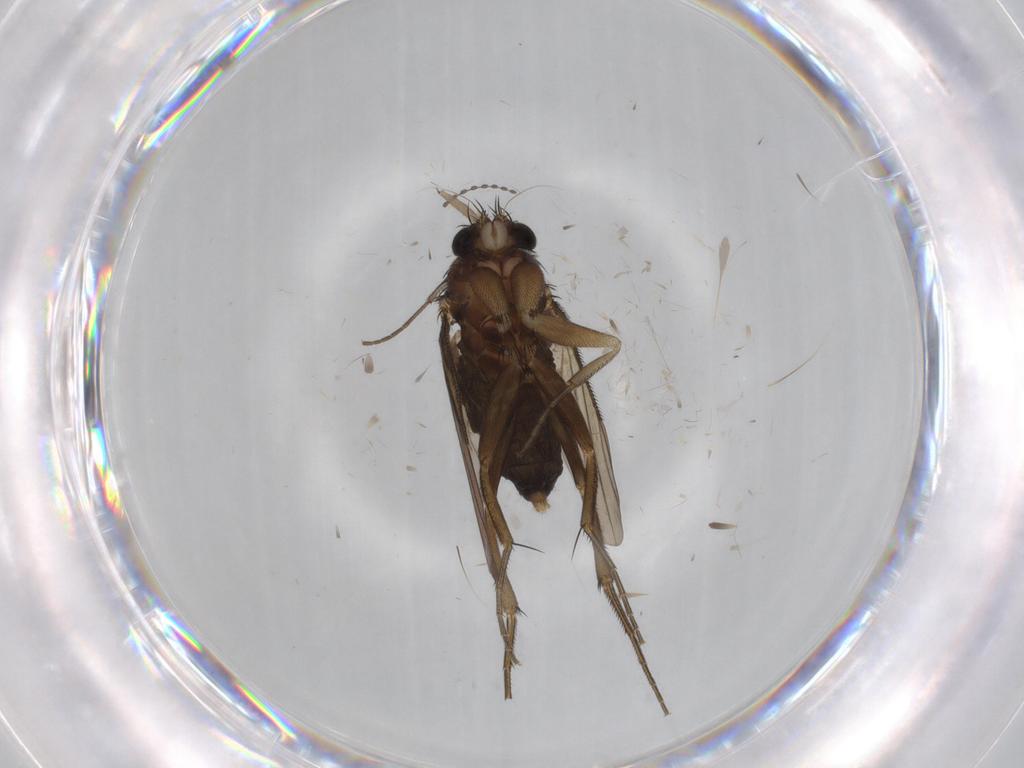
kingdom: Animalia
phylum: Arthropoda
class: Insecta
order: Diptera
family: Phoridae
